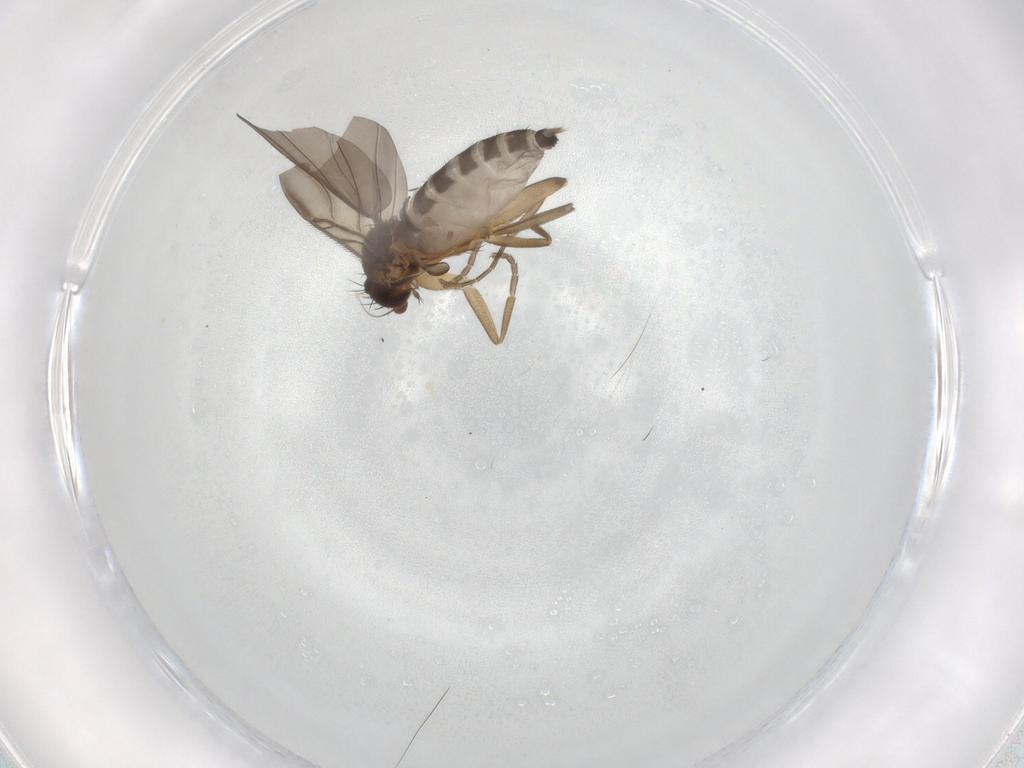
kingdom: Animalia
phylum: Arthropoda
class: Insecta
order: Diptera
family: Phoridae
